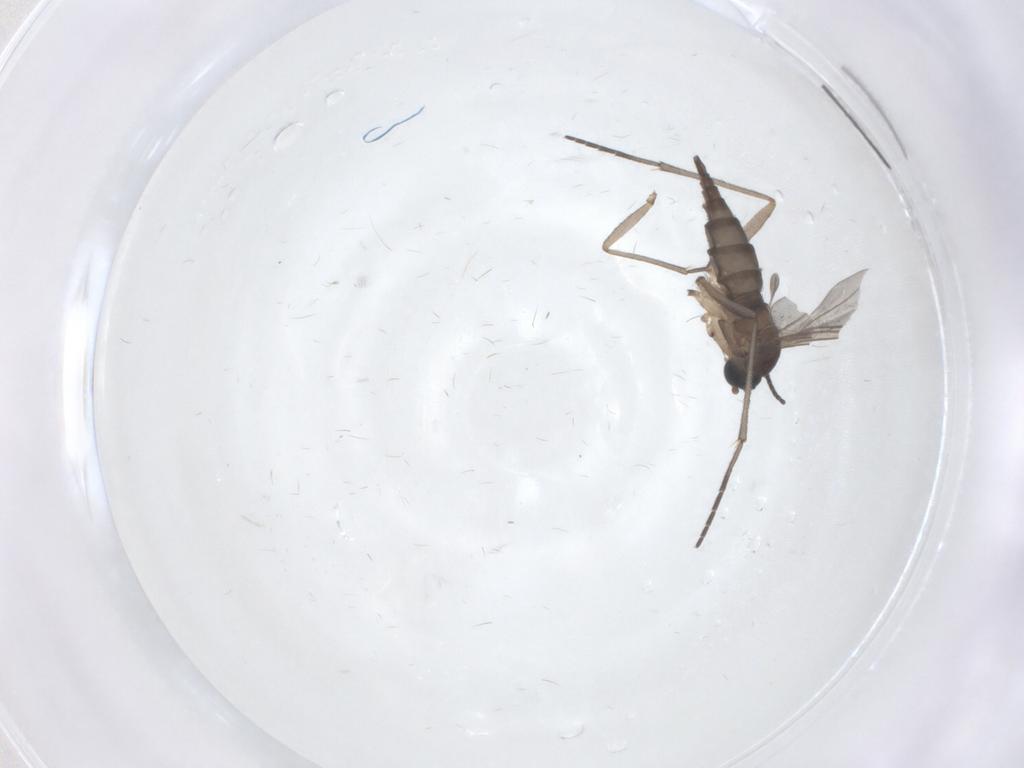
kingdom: Animalia
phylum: Arthropoda
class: Insecta
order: Diptera
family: Sciaridae
